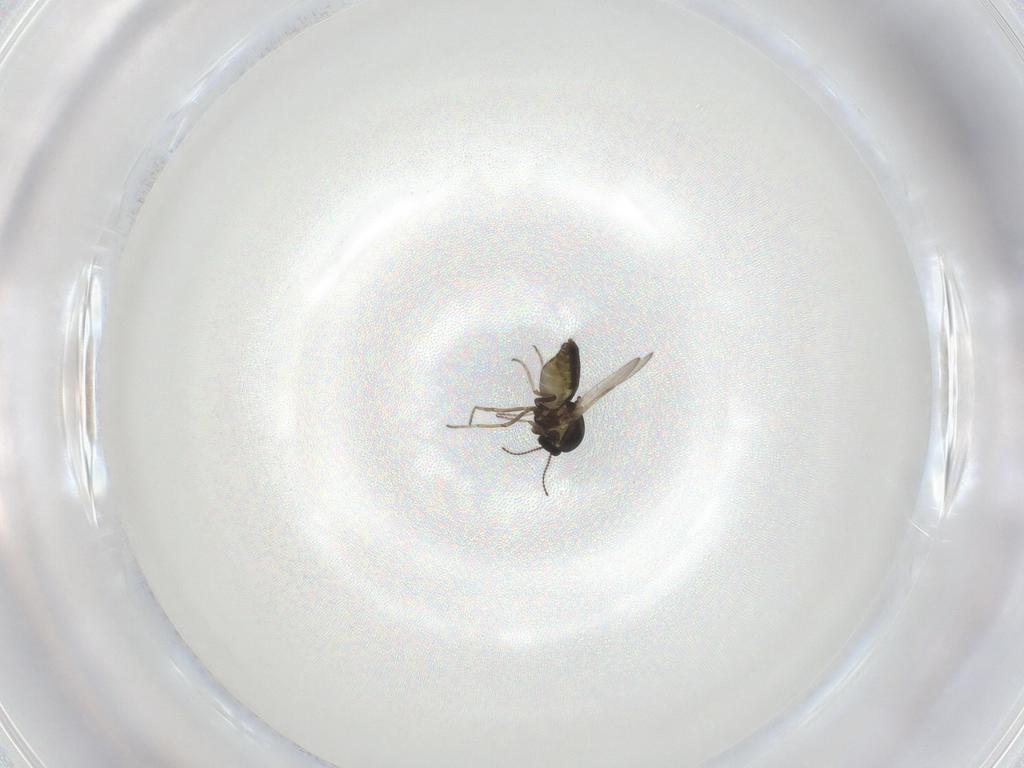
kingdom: Animalia
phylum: Arthropoda
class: Insecta
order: Diptera
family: Ceratopogonidae
